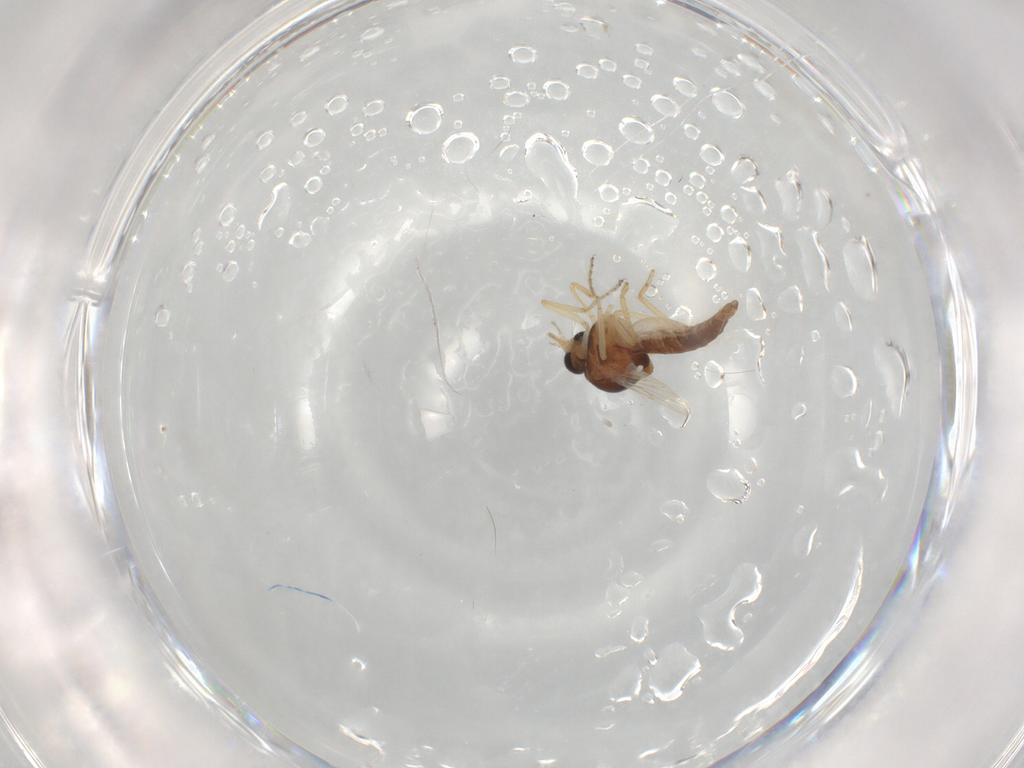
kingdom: Animalia
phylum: Arthropoda
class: Insecta
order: Diptera
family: Ceratopogonidae
